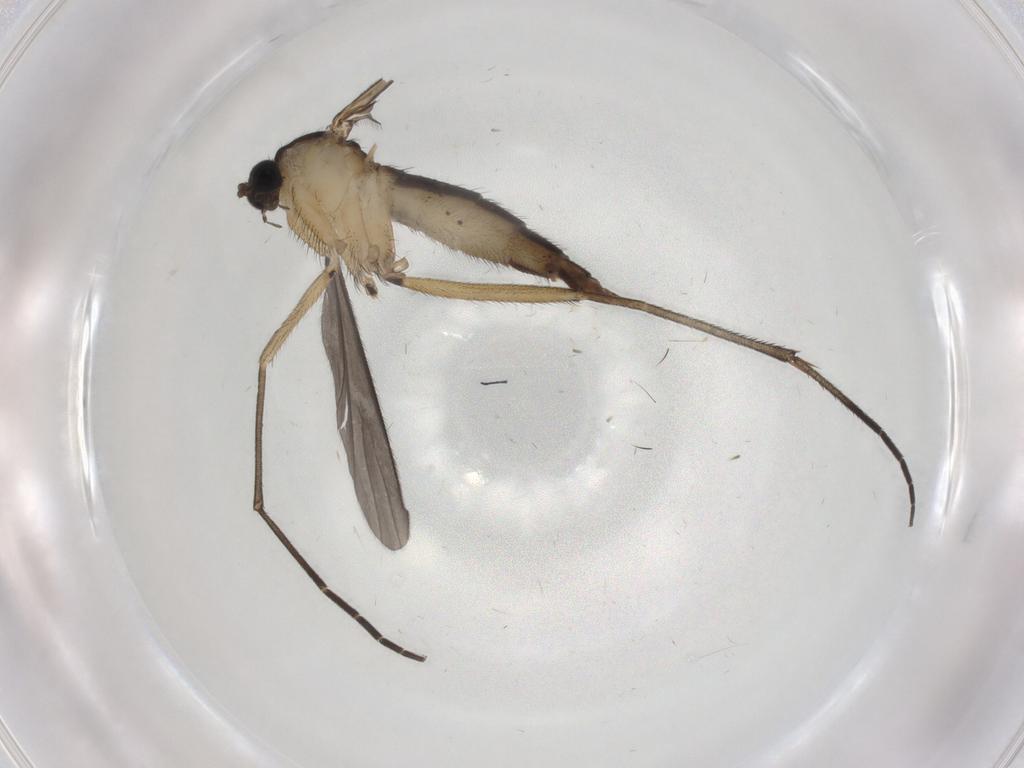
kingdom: Animalia
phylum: Arthropoda
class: Insecta
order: Diptera
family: Sciaridae
